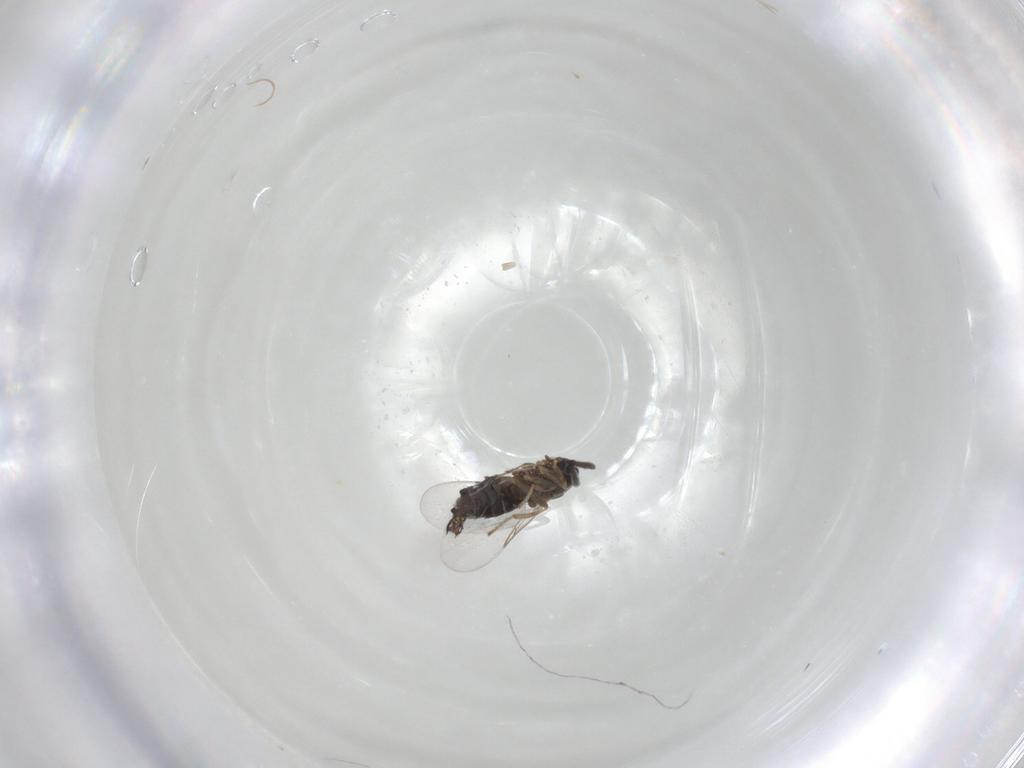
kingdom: Animalia
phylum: Arthropoda
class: Insecta
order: Diptera
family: Scatopsidae
